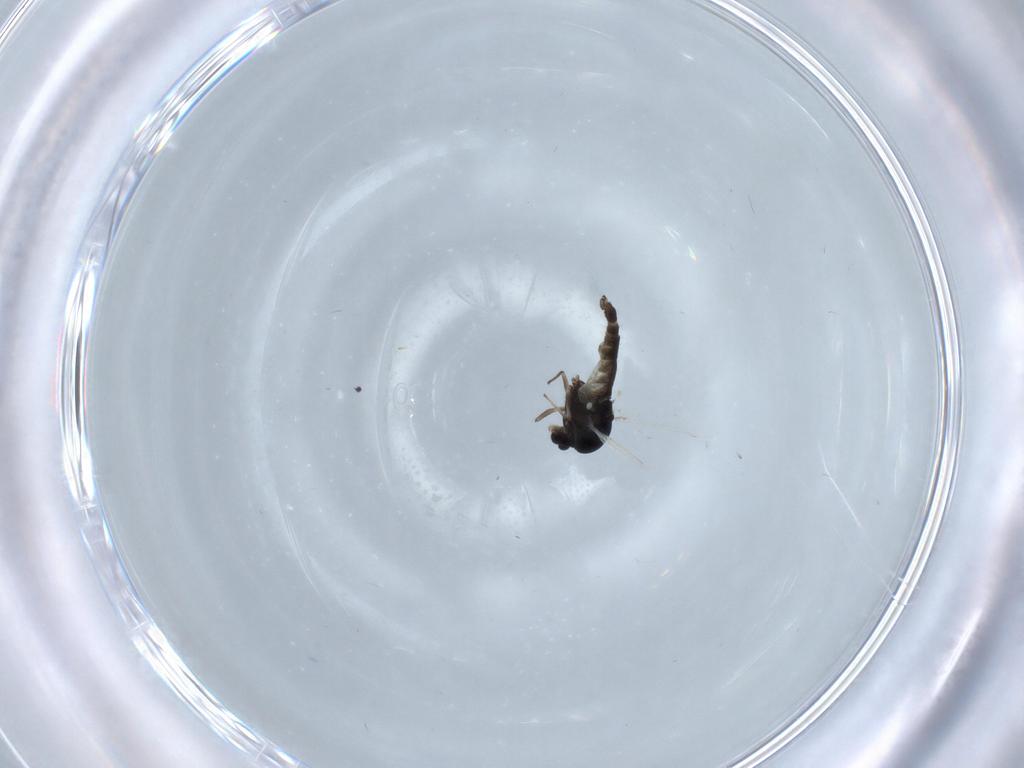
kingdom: Animalia
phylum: Arthropoda
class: Insecta
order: Diptera
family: Chironomidae
